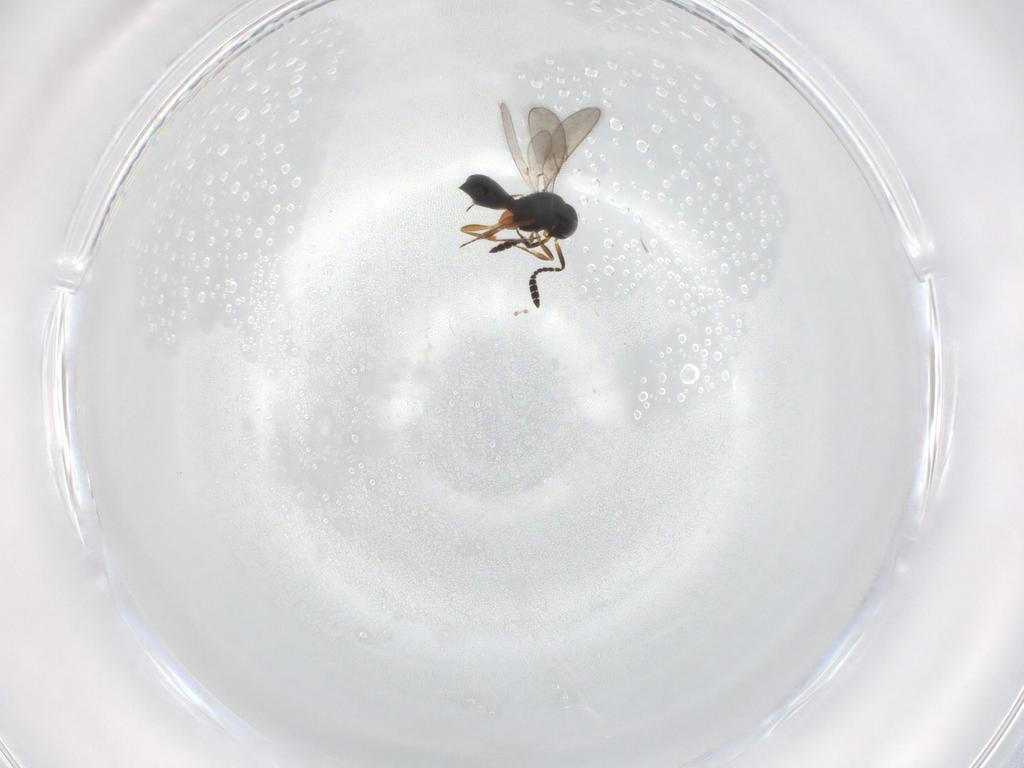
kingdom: Animalia
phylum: Arthropoda
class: Insecta
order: Hymenoptera
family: Scelionidae
